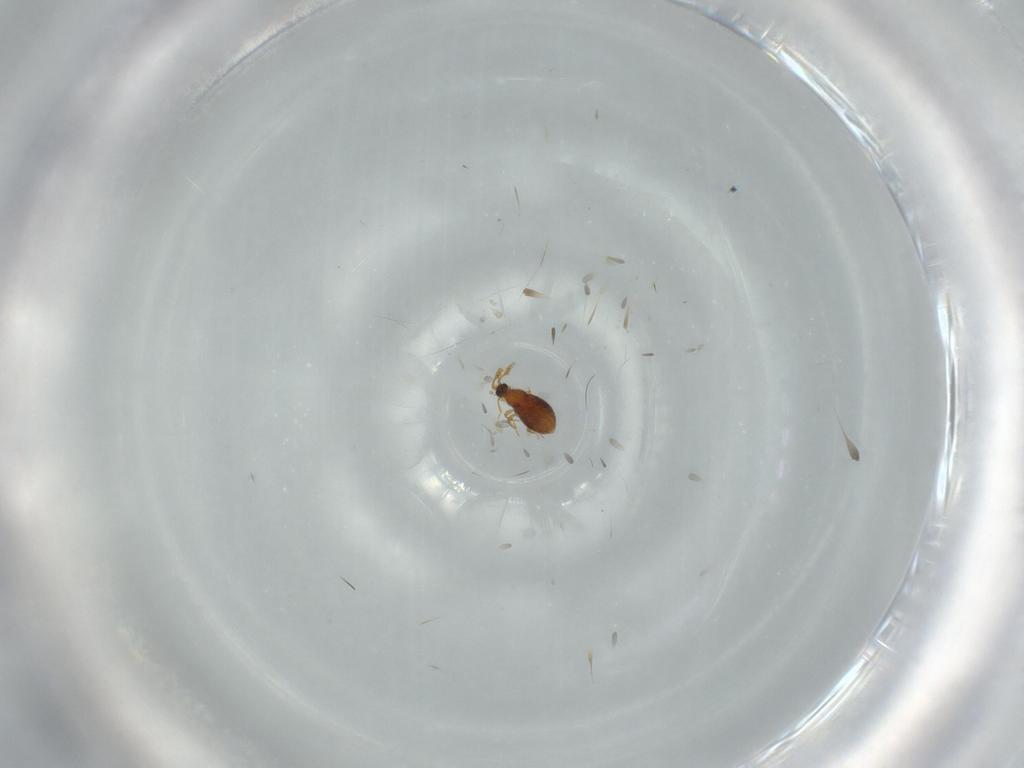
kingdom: Animalia
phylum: Arthropoda
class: Insecta
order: Coleoptera
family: Staphylinidae
